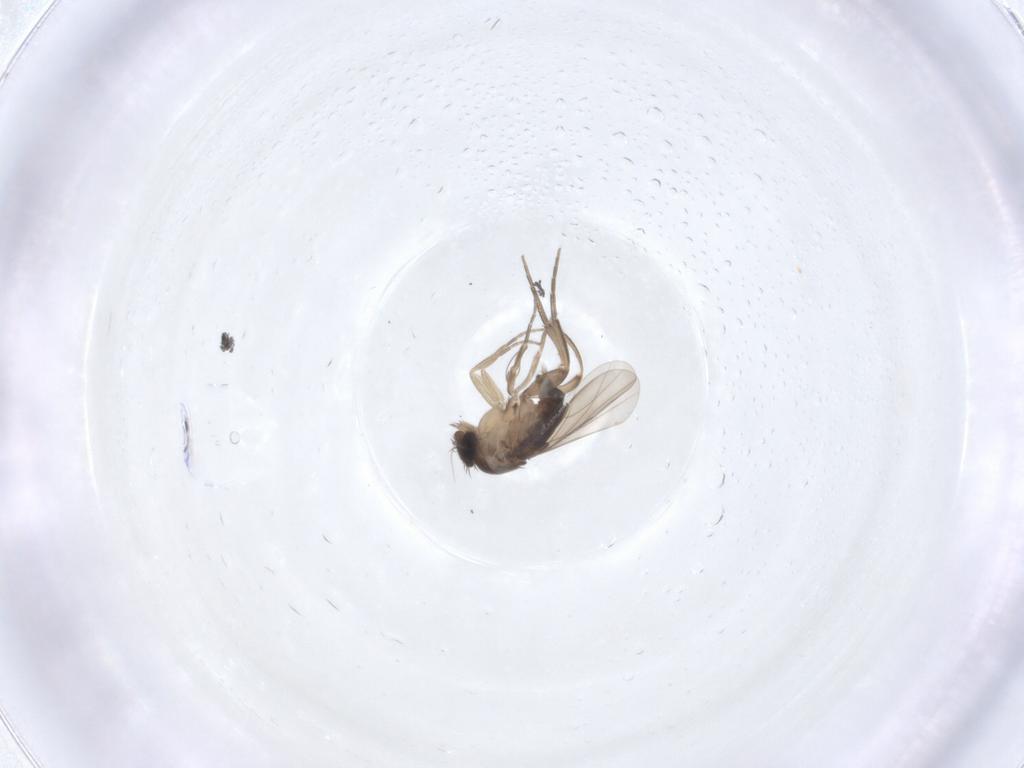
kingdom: Animalia
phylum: Arthropoda
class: Insecta
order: Diptera
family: Phoridae
